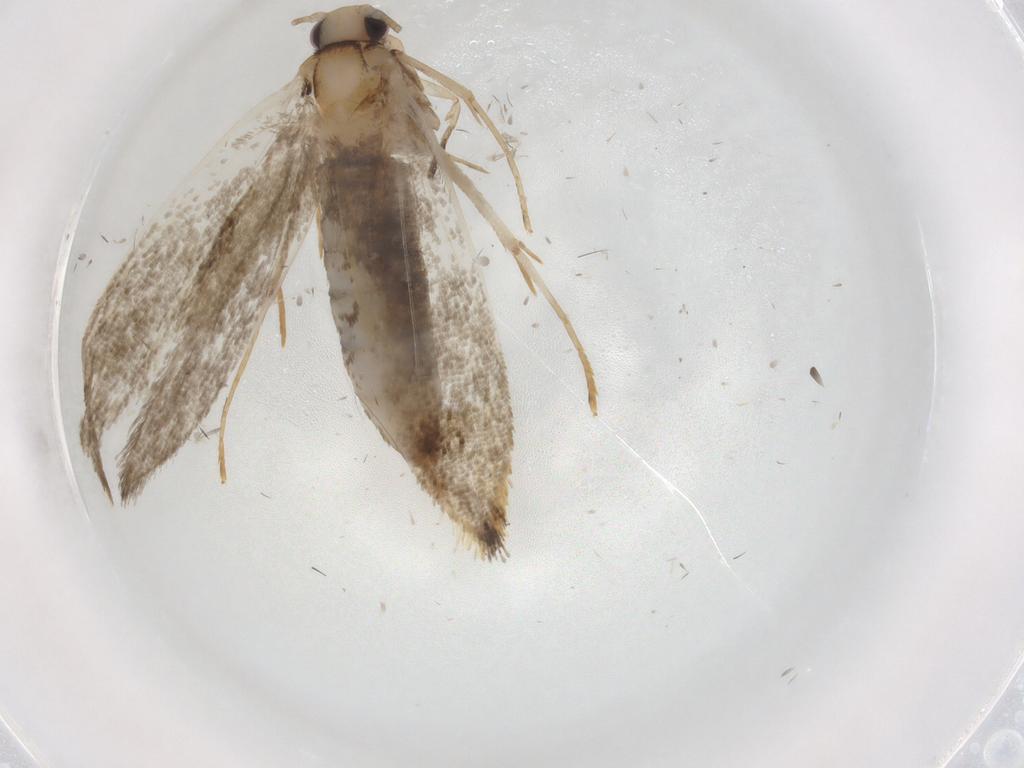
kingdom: Animalia
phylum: Arthropoda
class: Insecta
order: Lepidoptera
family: Tineidae
